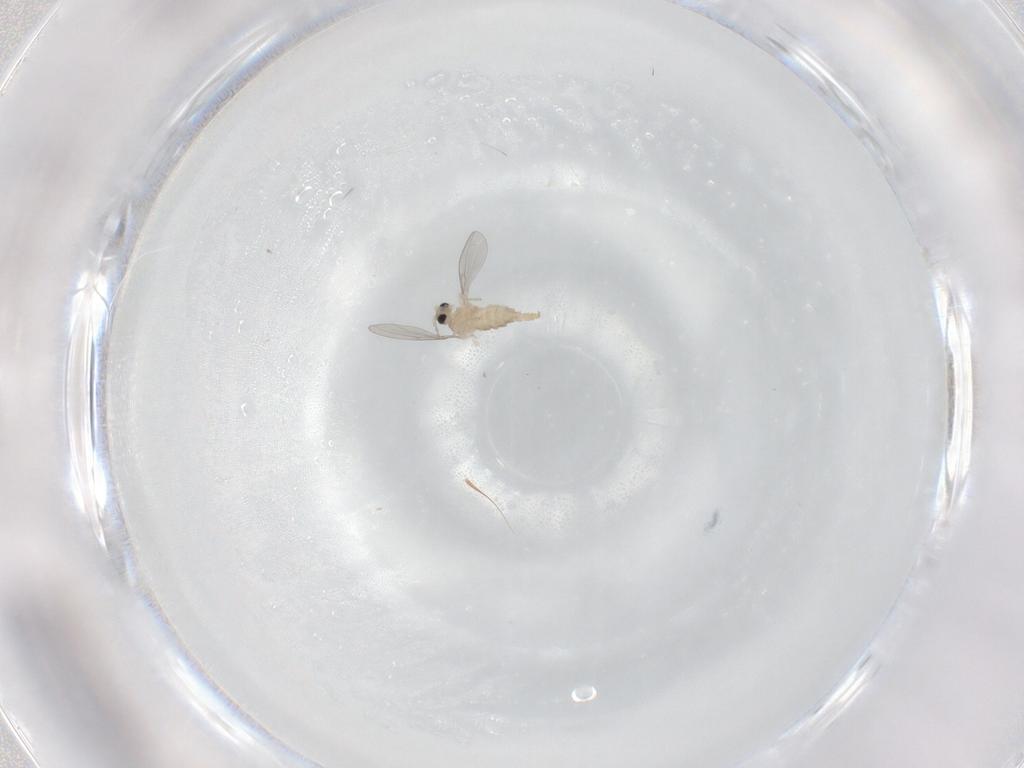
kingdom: Animalia
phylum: Arthropoda
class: Insecta
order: Diptera
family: Cecidomyiidae
